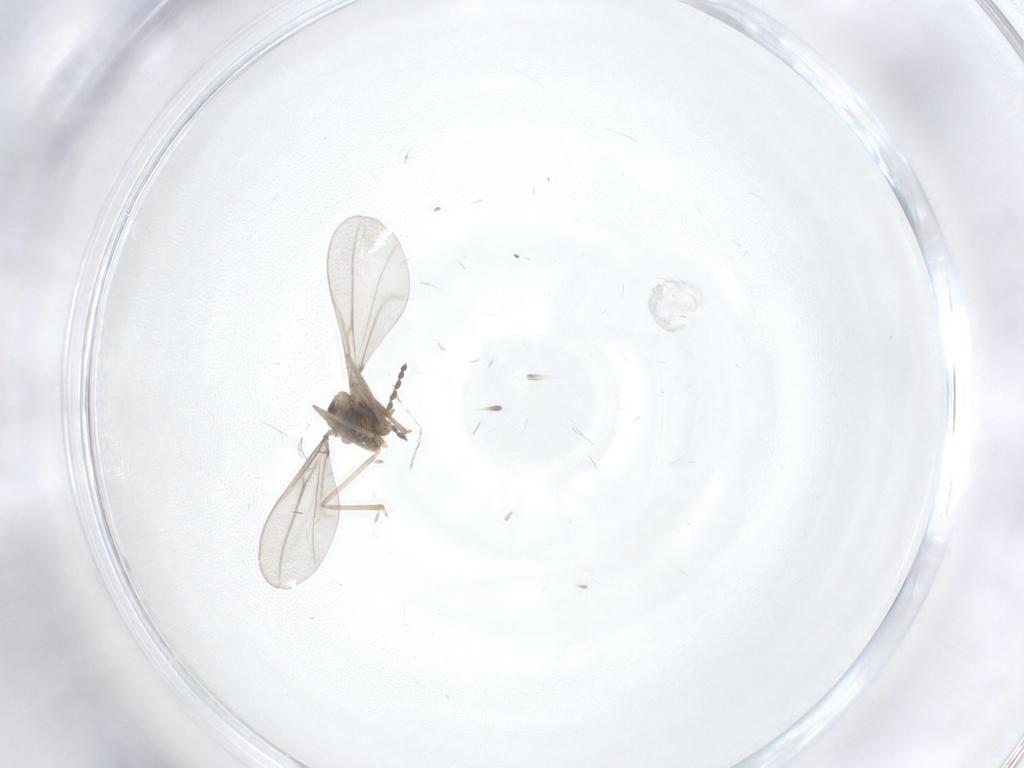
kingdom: Animalia
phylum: Arthropoda
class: Insecta
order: Diptera
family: Cecidomyiidae
